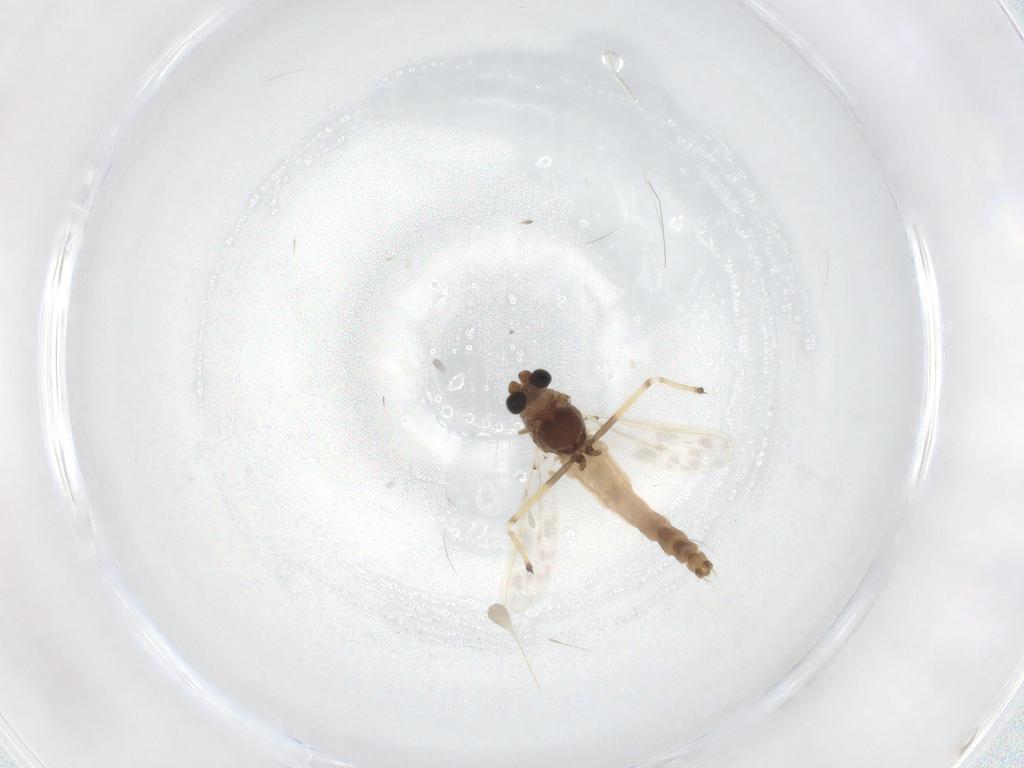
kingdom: Animalia
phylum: Arthropoda
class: Insecta
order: Diptera
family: Chironomidae
